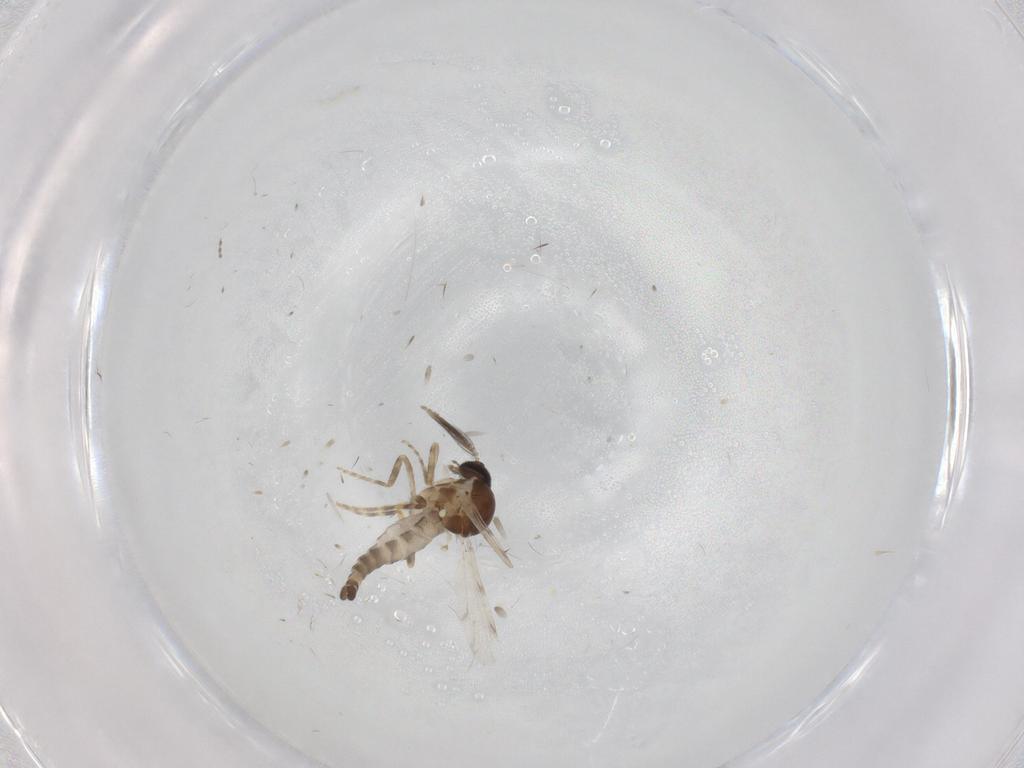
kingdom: Animalia
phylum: Arthropoda
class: Insecta
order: Diptera
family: Ceratopogonidae
